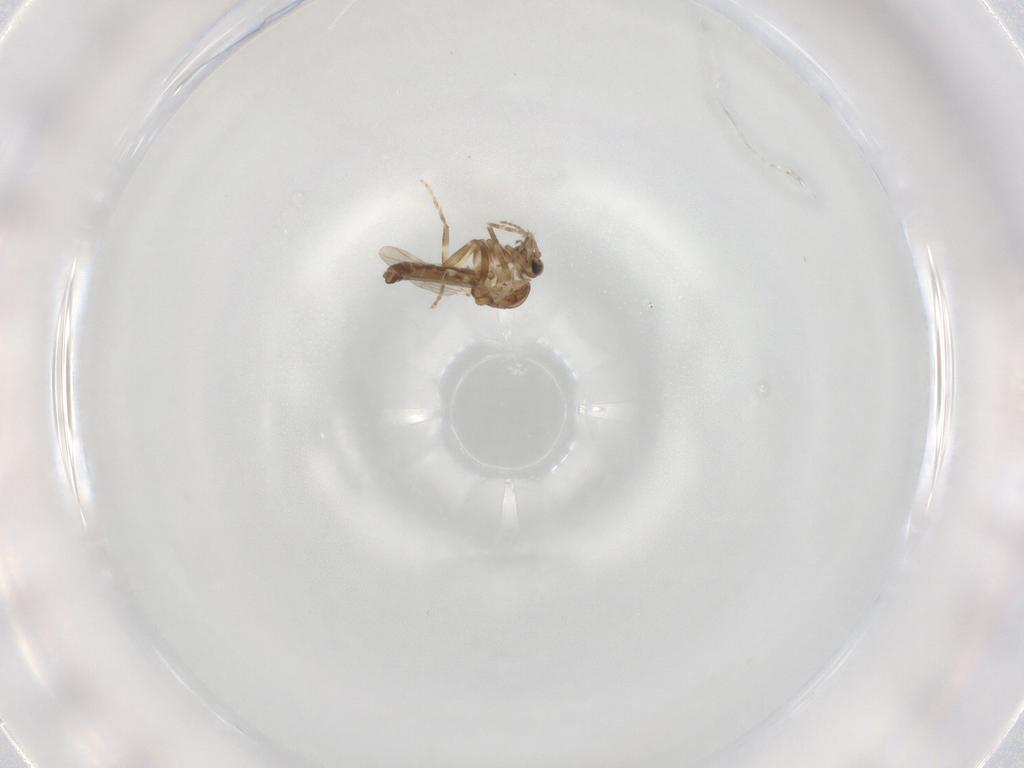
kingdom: Animalia
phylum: Arthropoda
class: Insecta
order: Diptera
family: Ceratopogonidae
